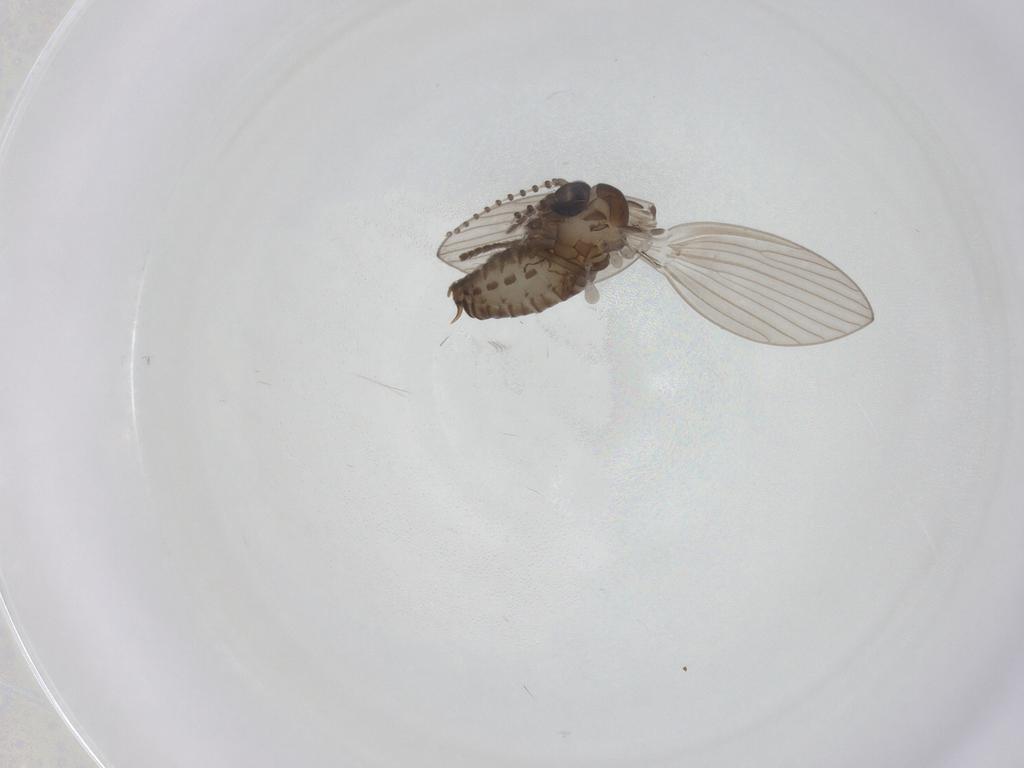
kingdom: Animalia
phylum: Arthropoda
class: Insecta
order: Diptera
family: Psychodidae
